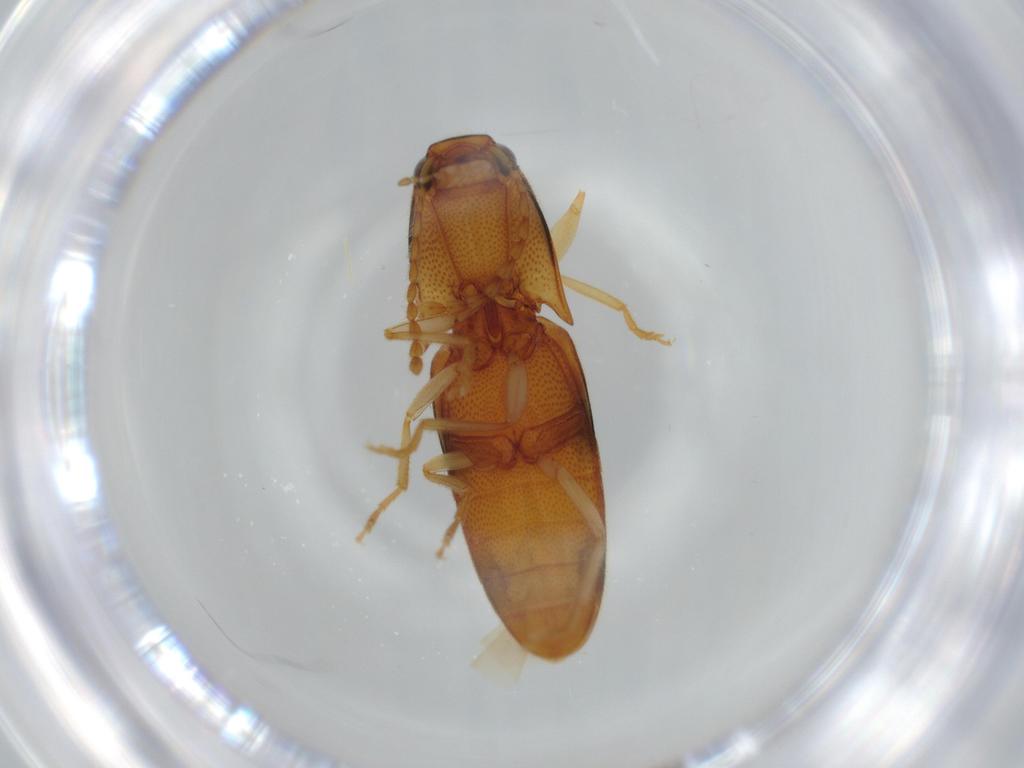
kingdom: Animalia
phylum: Arthropoda
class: Insecta
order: Coleoptera
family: Elateridae
